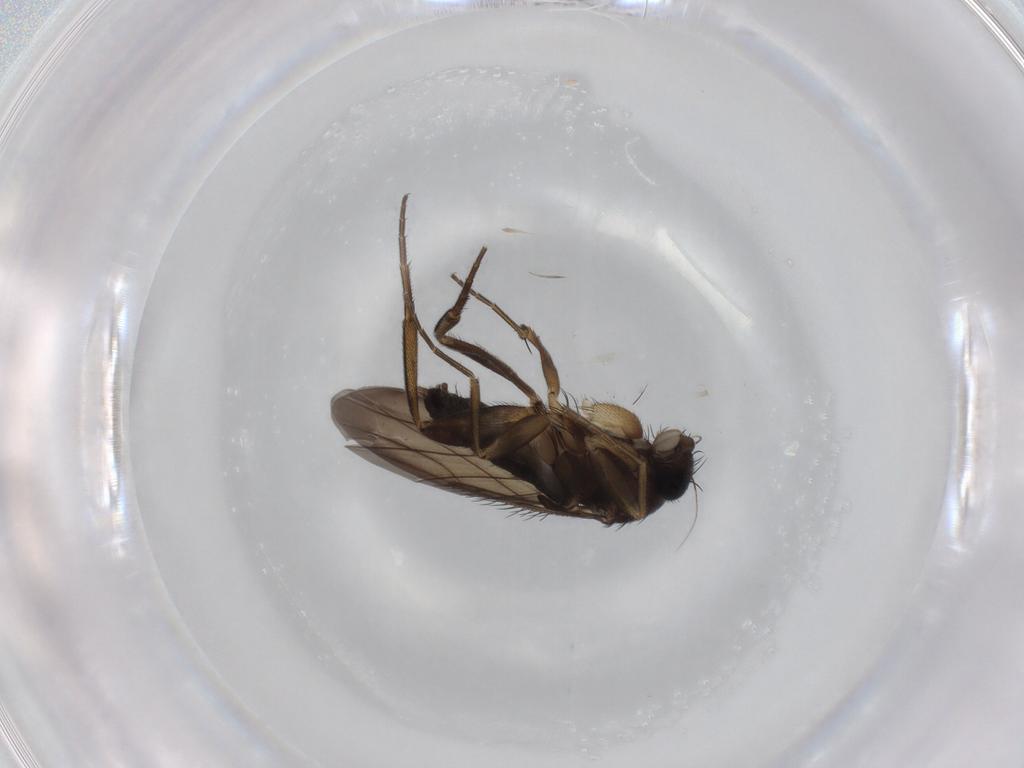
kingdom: Animalia
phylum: Arthropoda
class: Insecta
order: Diptera
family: Phoridae
